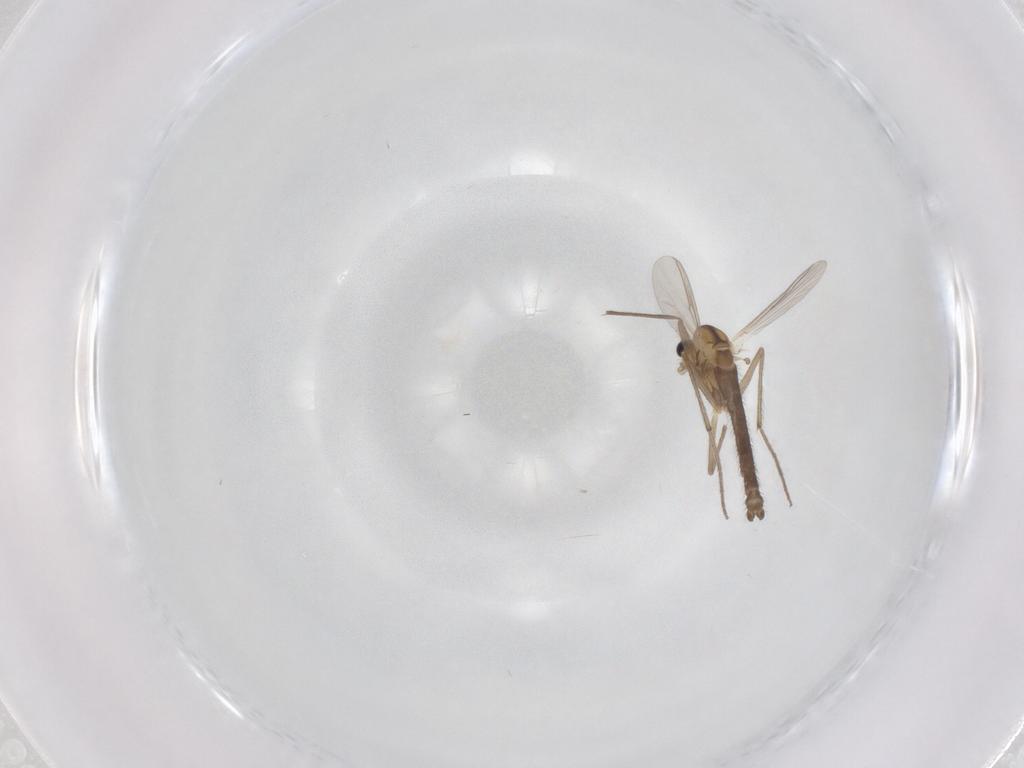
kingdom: Animalia
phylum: Arthropoda
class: Insecta
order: Diptera
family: Chironomidae
